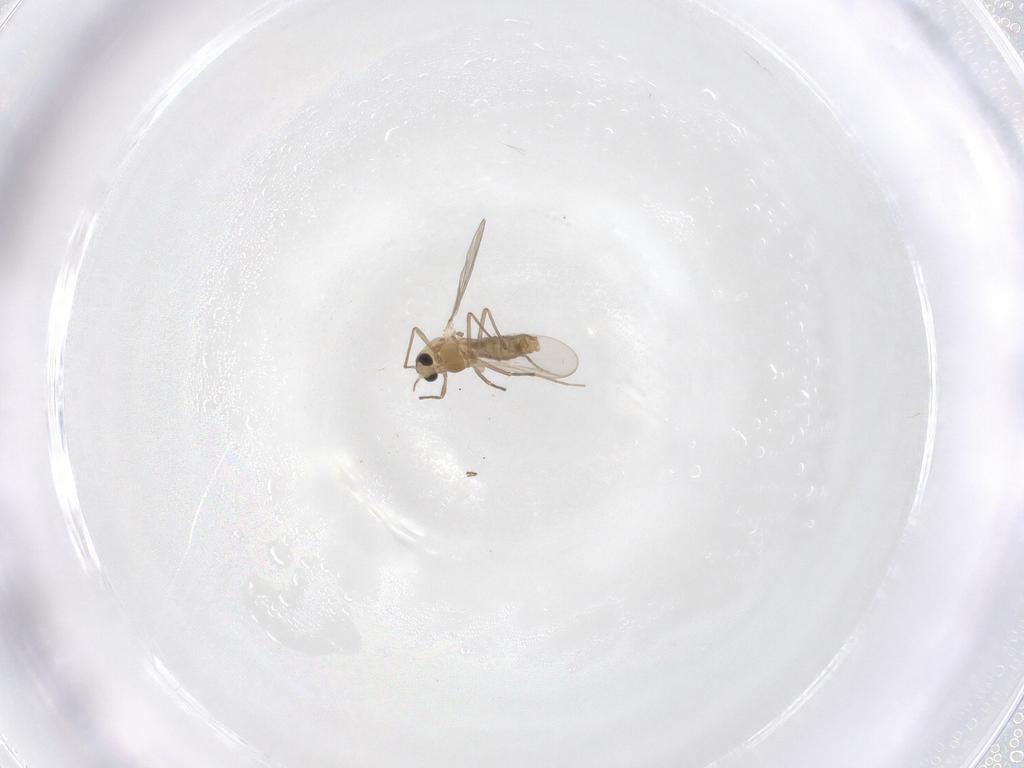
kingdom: Animalia
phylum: Arthropoda
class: Insecta
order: Diptera
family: Chironomidae
